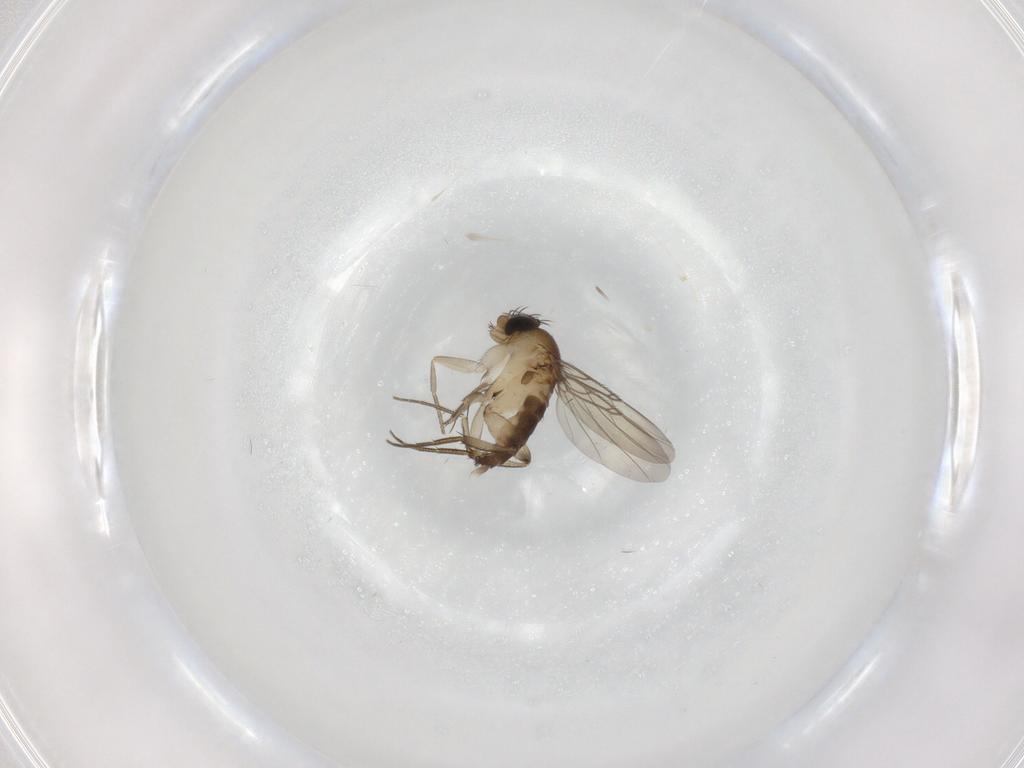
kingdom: Animalia
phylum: Arthropoda
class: Insecta
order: Diptera
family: Phoridae
